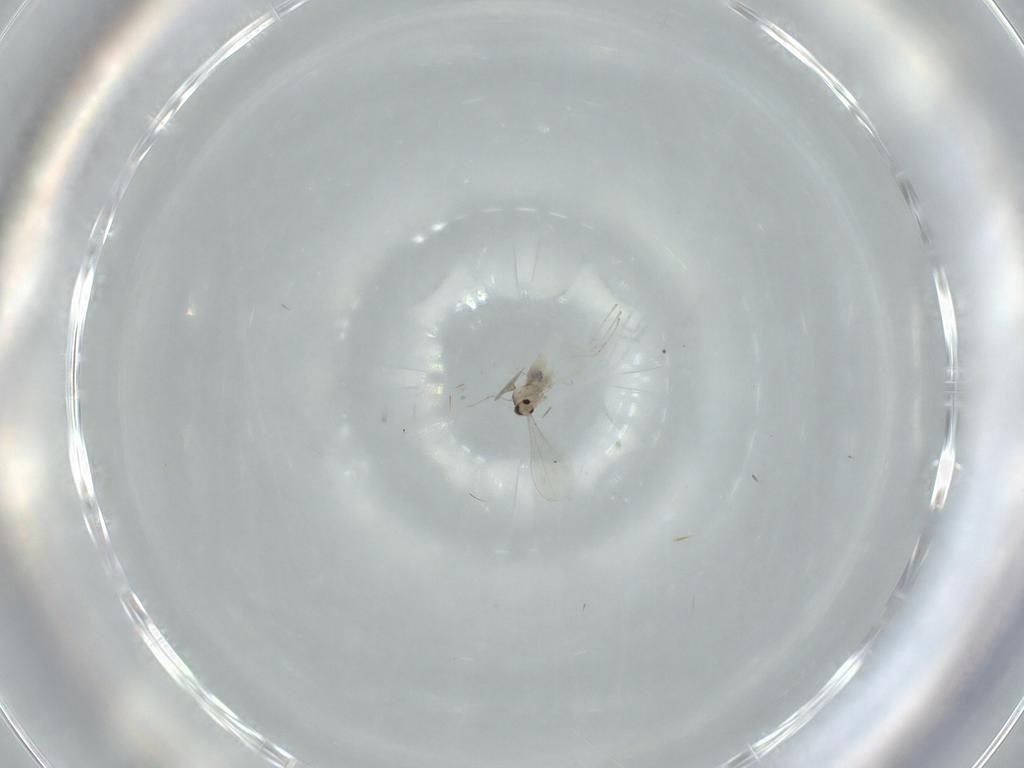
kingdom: Animalia
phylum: Arthropoda
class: Insecta
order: Diptera
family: Cecidomyiidae
